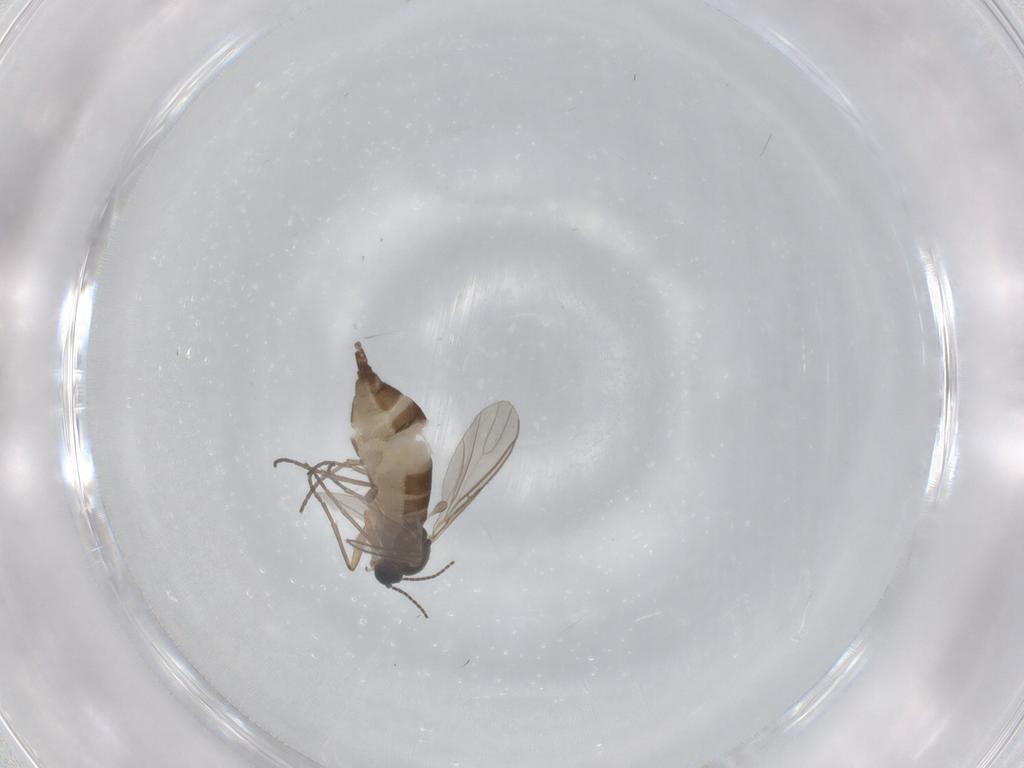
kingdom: Animalia
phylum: Arthropoda
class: Insecta
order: Diptera
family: Sciaridae
